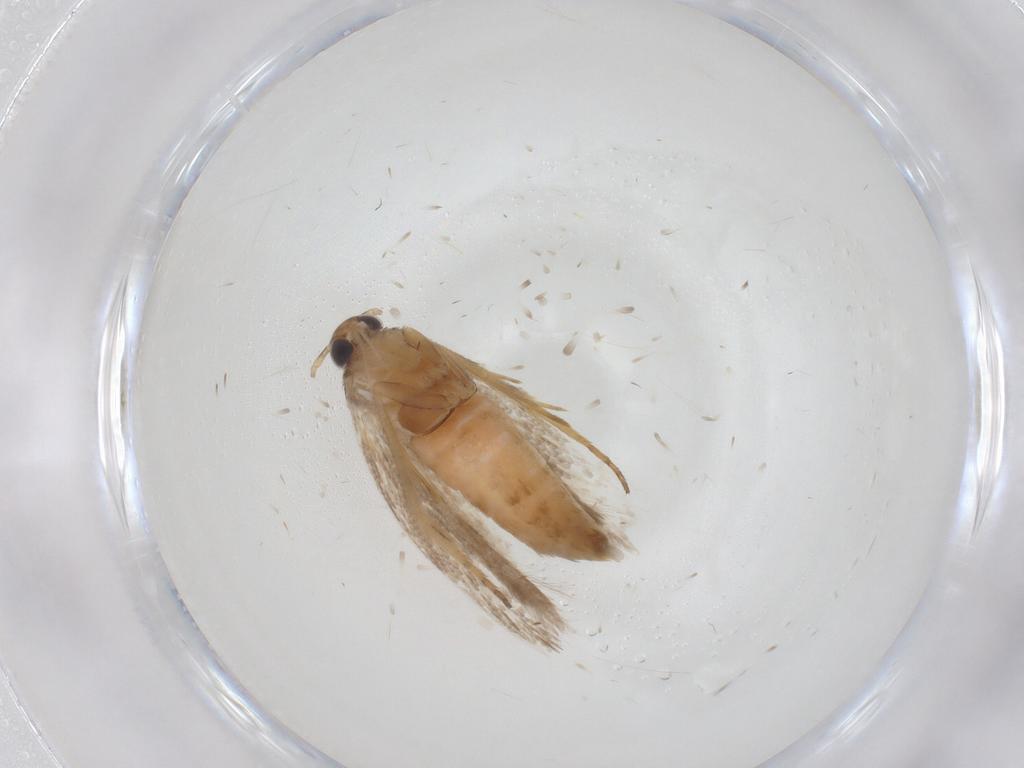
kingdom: Animalia
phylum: Arthropoda
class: Insecta
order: Lepidoptera
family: Gelechiidae
